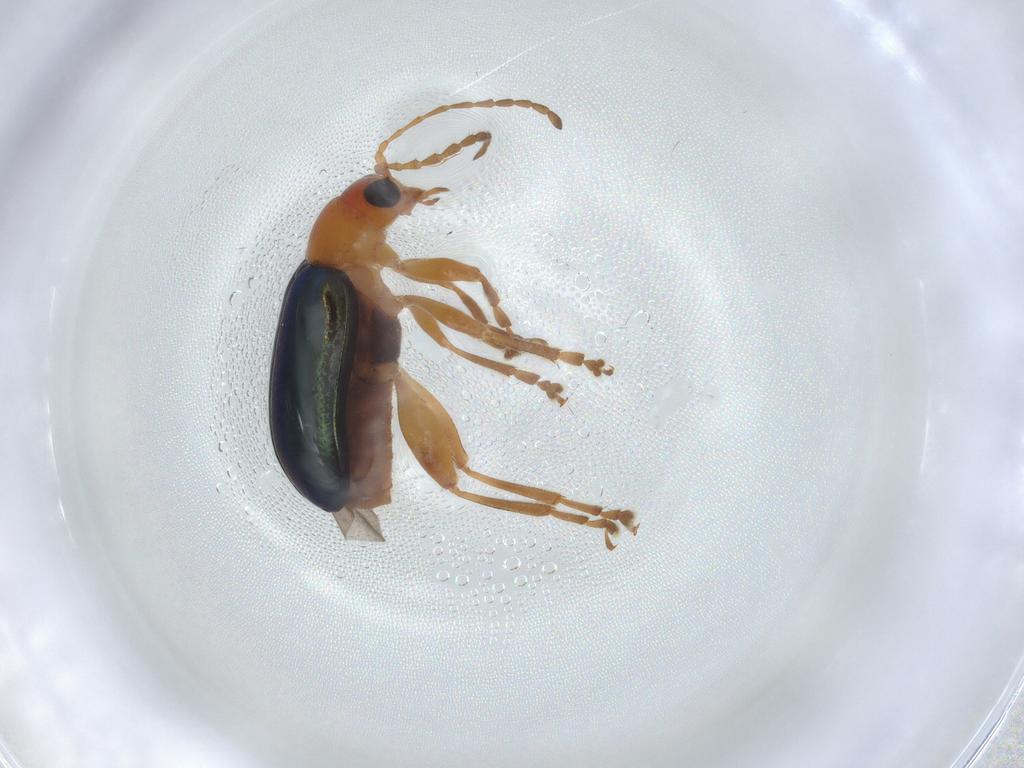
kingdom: Animalia
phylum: Arthropoda
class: Insecta
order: Coleoptera
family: Chrysomelidae
